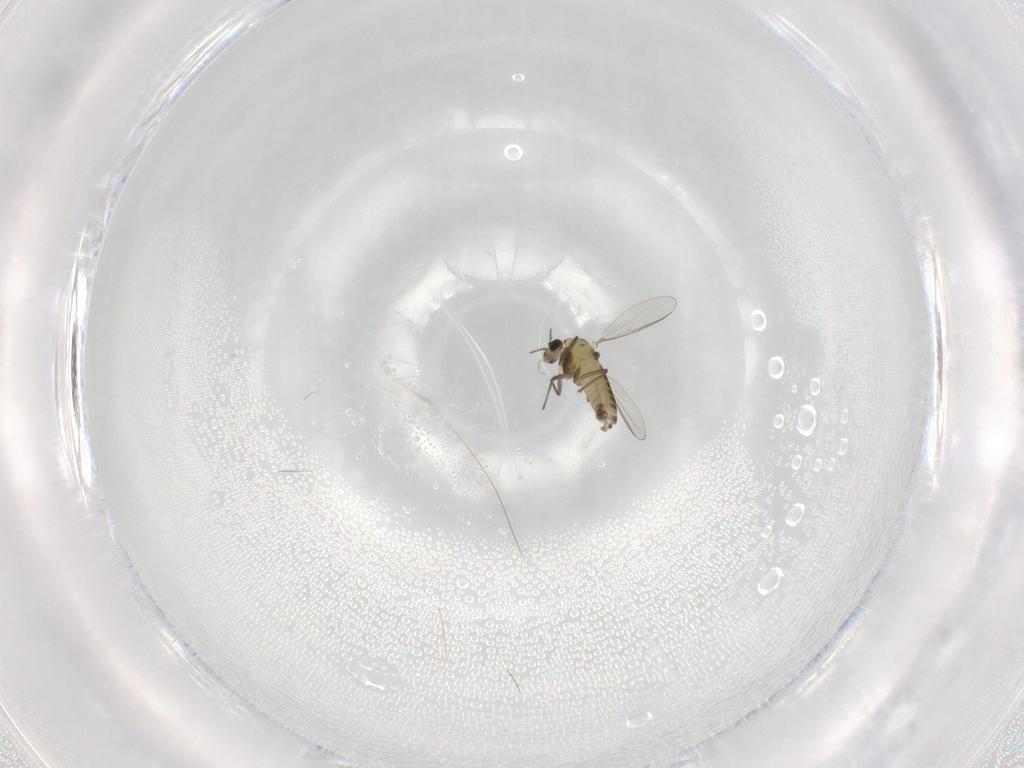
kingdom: Animalia
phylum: Arthropoda
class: Insecta
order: Diptera
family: Chironomidae
